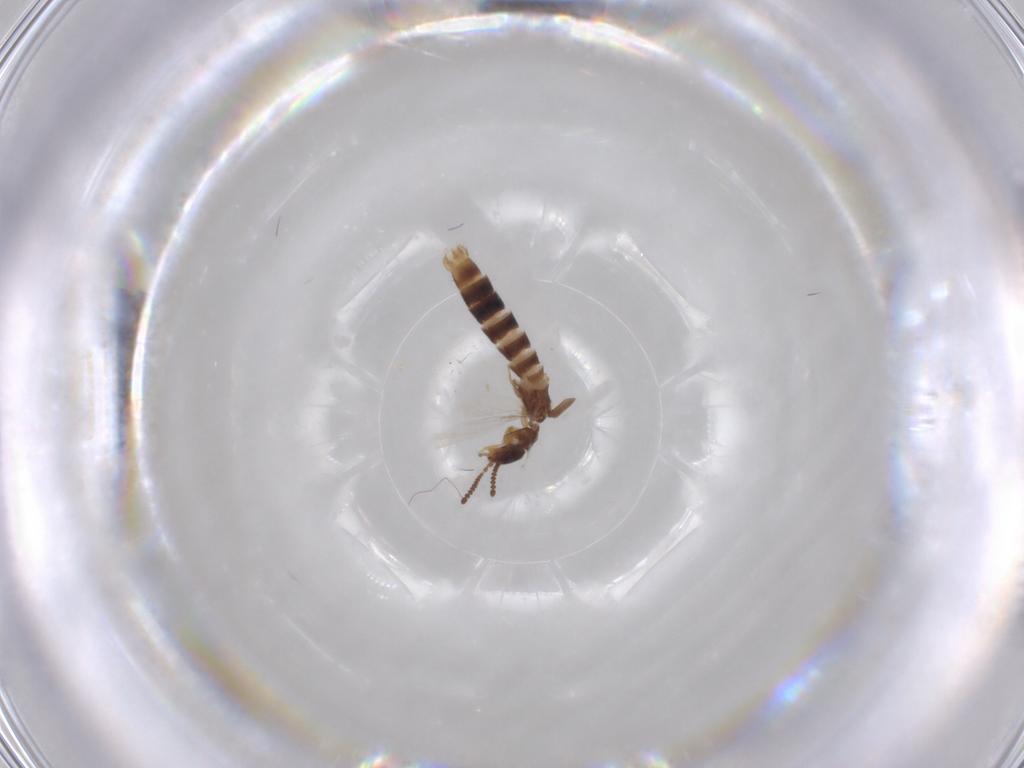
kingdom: Animalia
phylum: Arthropoda
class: Insecta
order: Coleoptera
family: Staphylinidae
